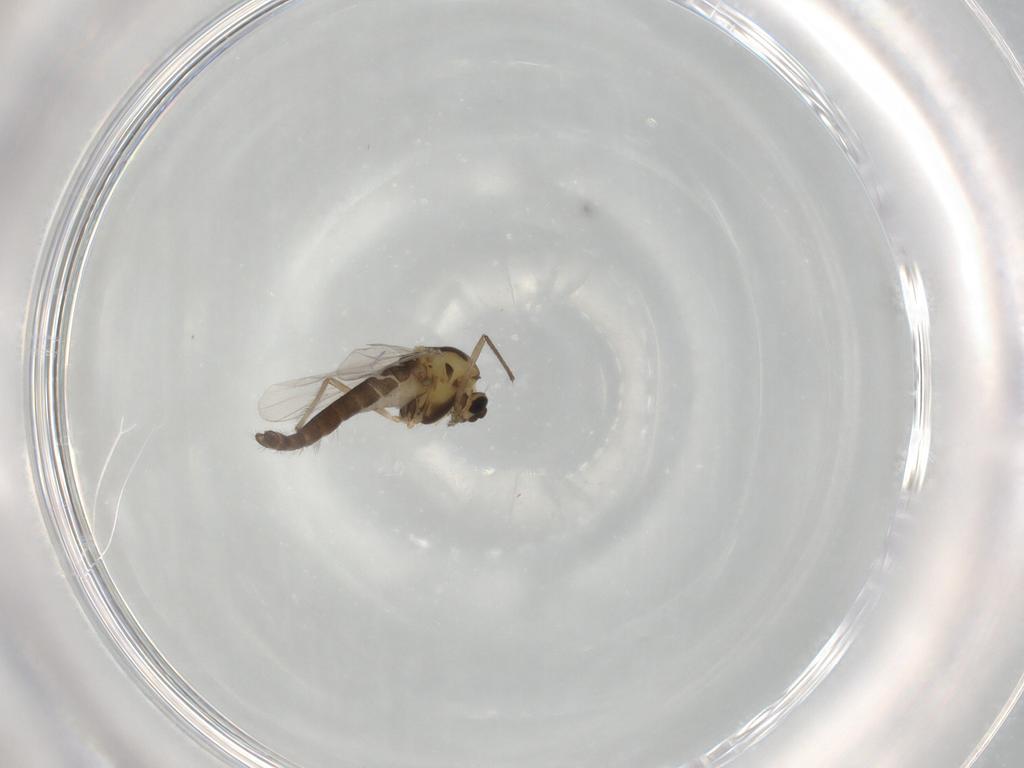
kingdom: Animalia
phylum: Arthropoda
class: Insecta
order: Diptera
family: Chironomidae
